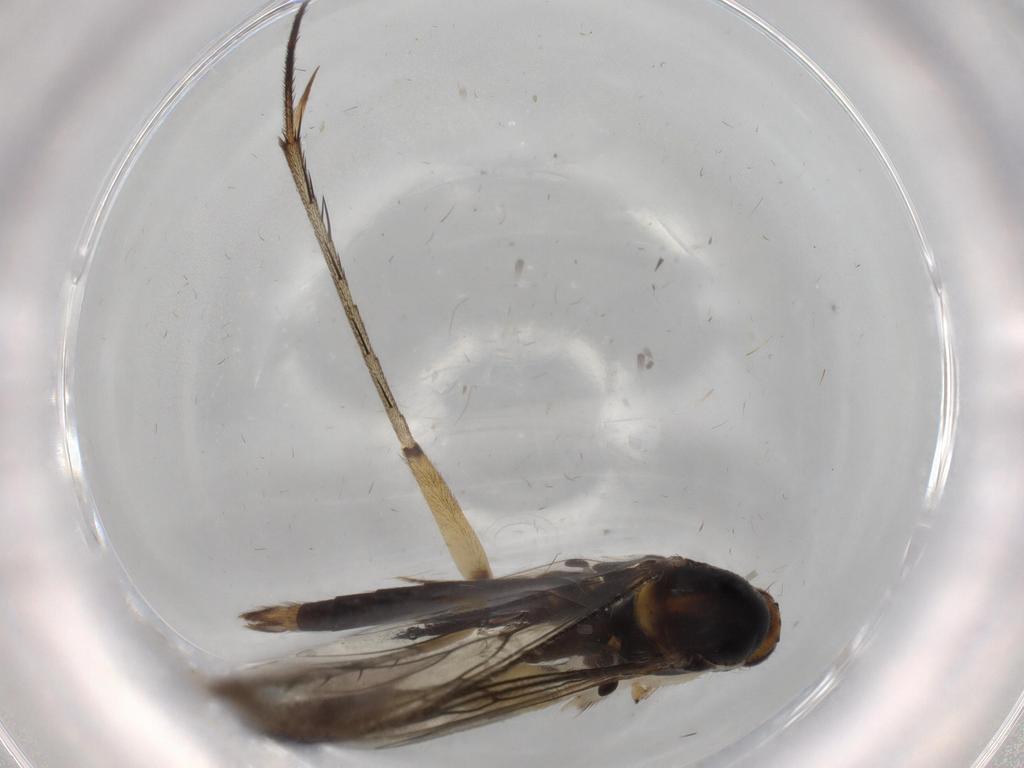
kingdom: Animalia
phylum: Arthropoda
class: Insecta
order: Diptera
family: Mycetophilidae
